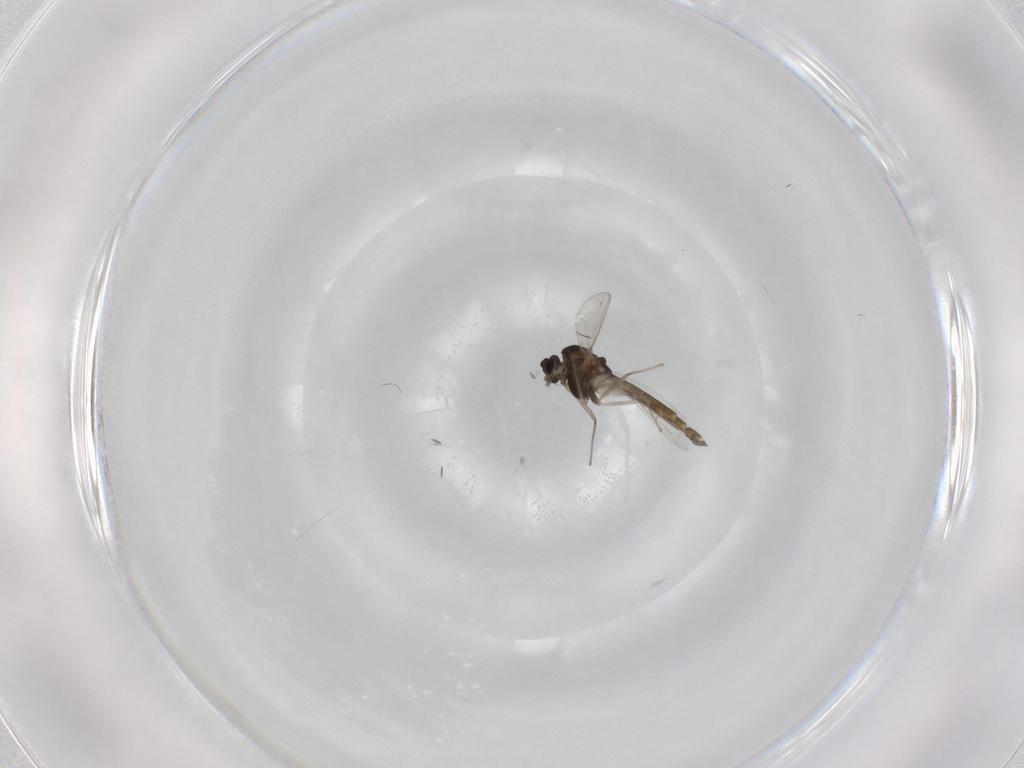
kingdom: Animalia
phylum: Arthropoda
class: Insecta
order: Diptera
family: Chironomidae
